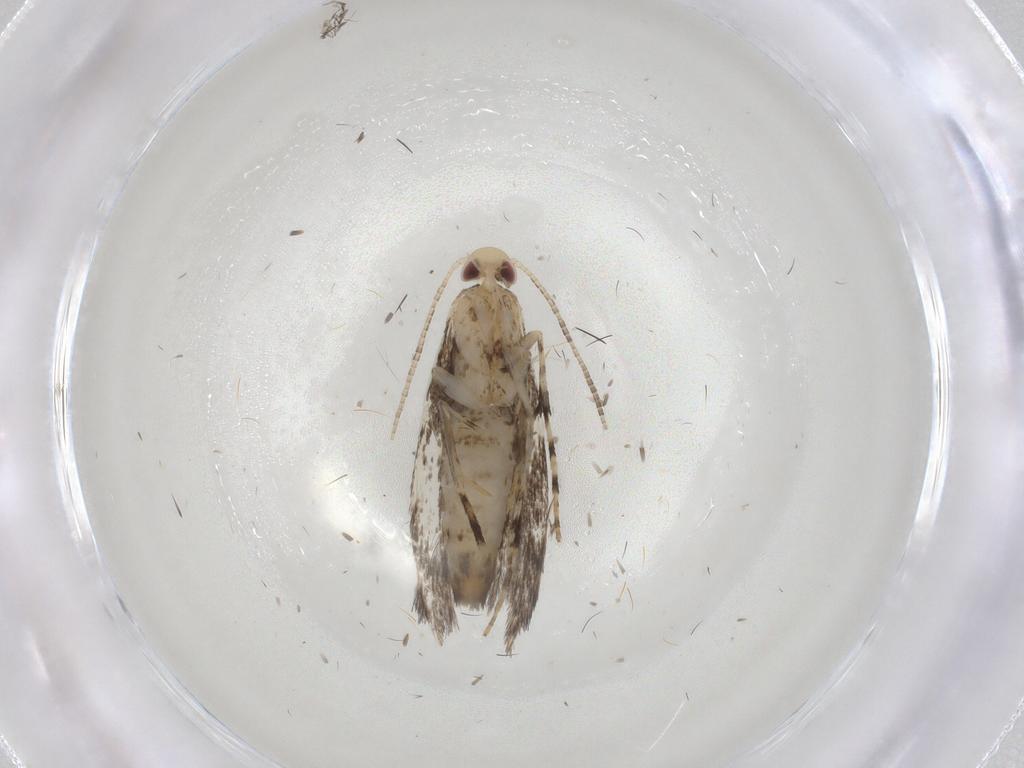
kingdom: Animalia
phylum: Arthropoda
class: Insecta
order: Lepidoptera
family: Gracillariidae
